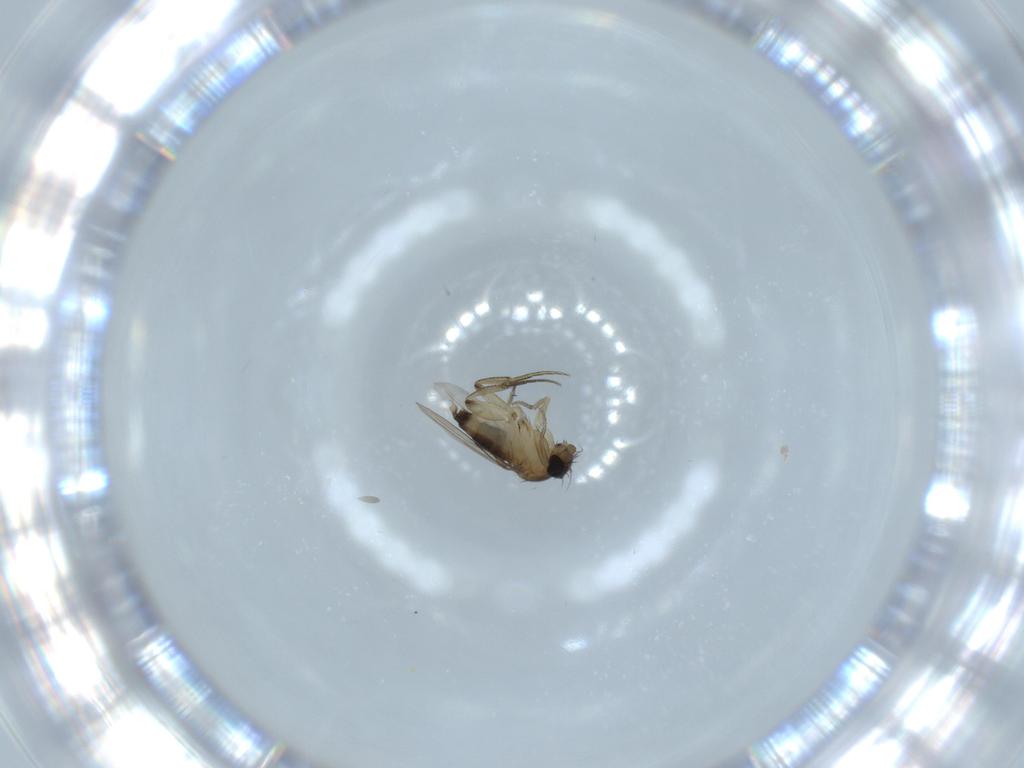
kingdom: Animalia
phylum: Arthropoda
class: Insecta
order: Diptera
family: Phoridae
